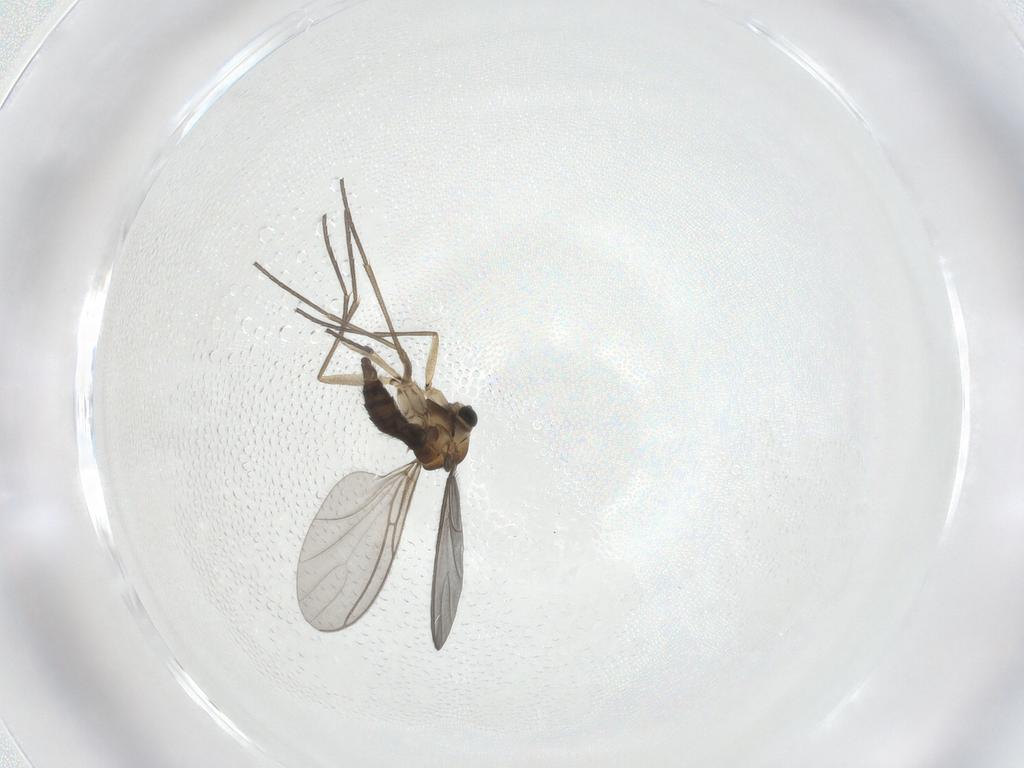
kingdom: Animalia
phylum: Arthropoda
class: Insecta
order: Diptera
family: Sciaridae
